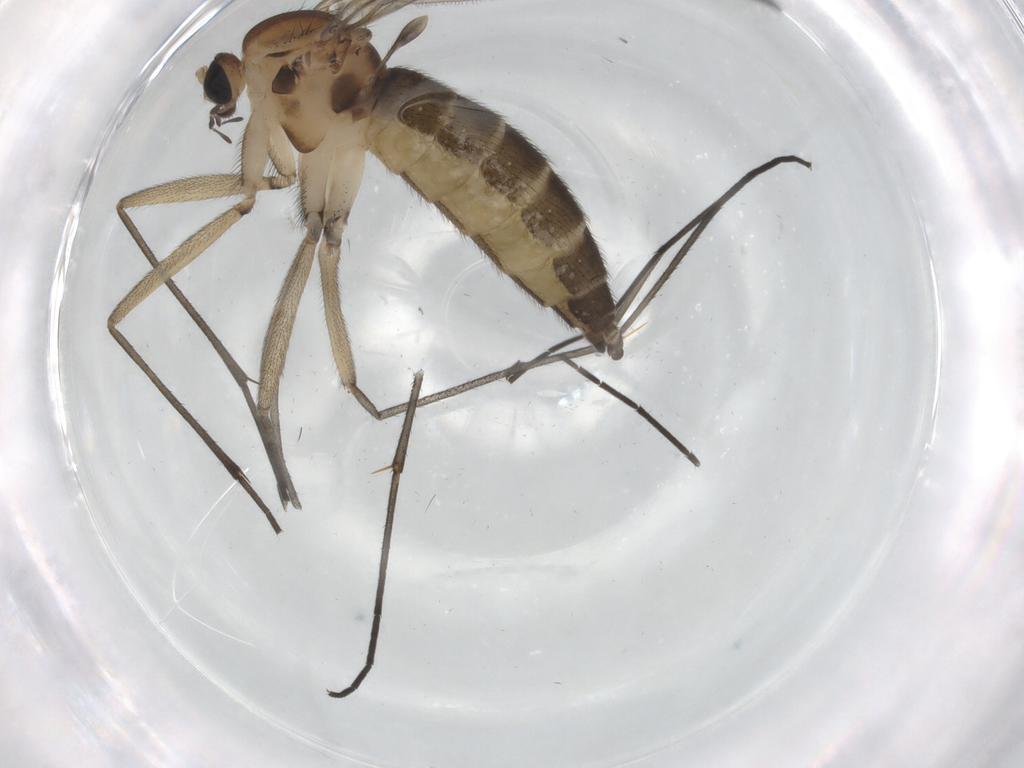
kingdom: Animalia
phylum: Arthropoda
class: Insecta
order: Diptera
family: Sciaridae
